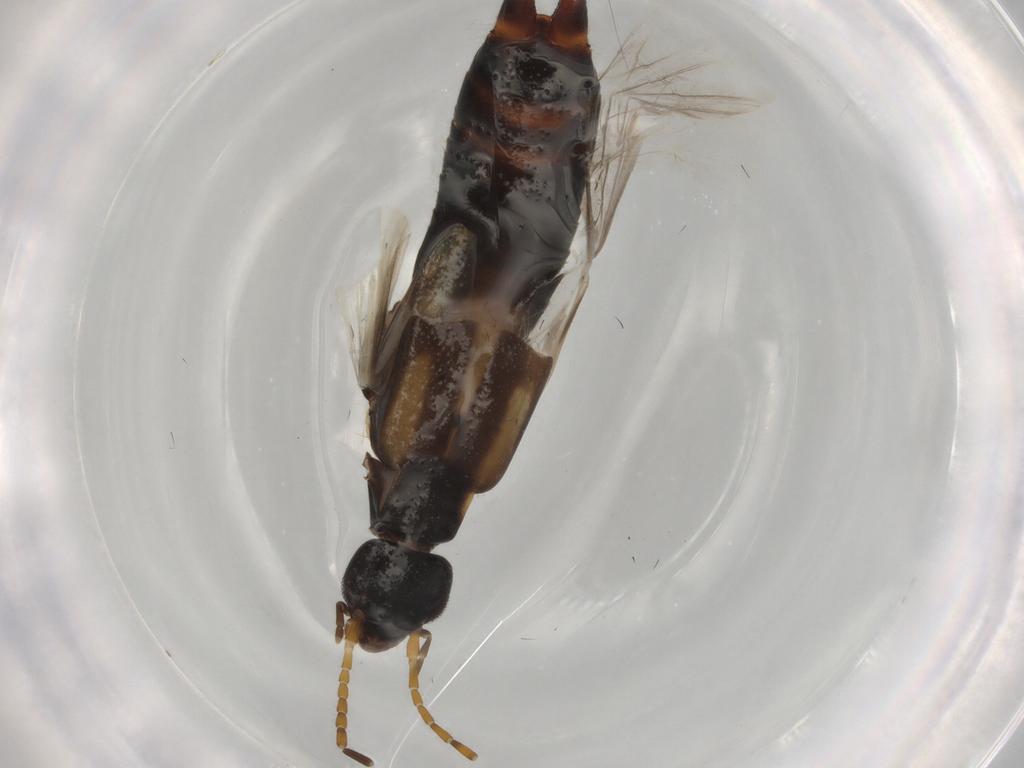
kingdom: Animalia
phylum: Arthropoda
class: Insecta
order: Dermaptera
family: Labiduridae
